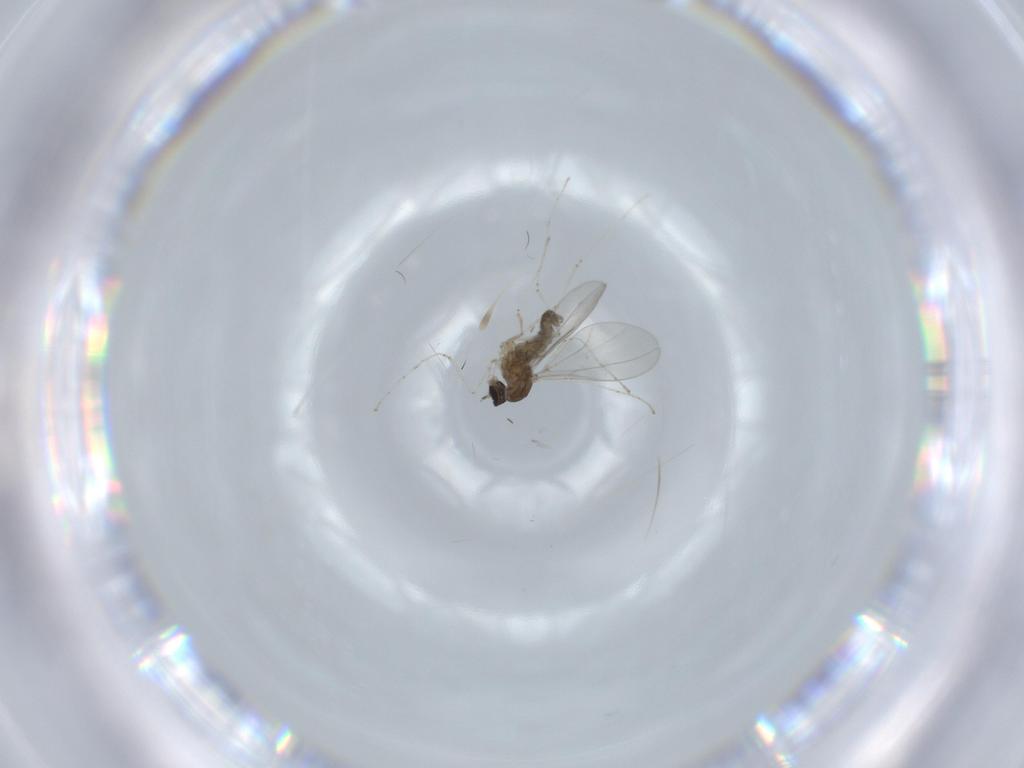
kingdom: Animalia
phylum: Arthropoda
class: Insecta
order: Diptera
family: Cecidomyiidae
